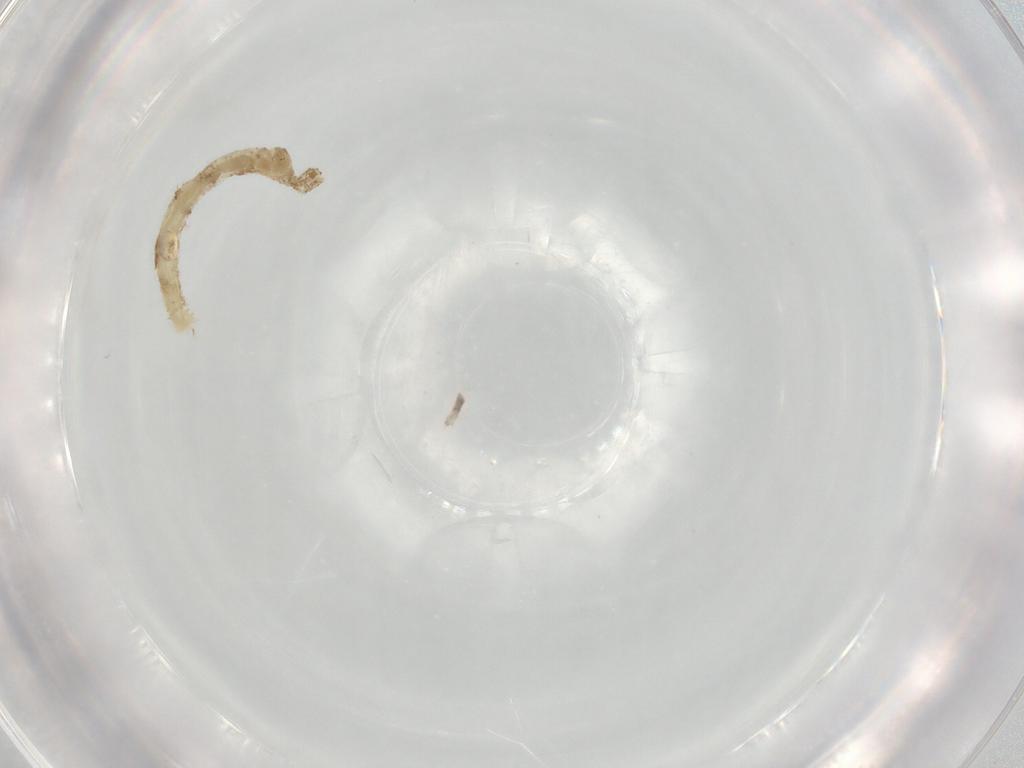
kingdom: Animalia
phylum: Arthropoda
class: Insecta
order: Diptera
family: Chironomidae
